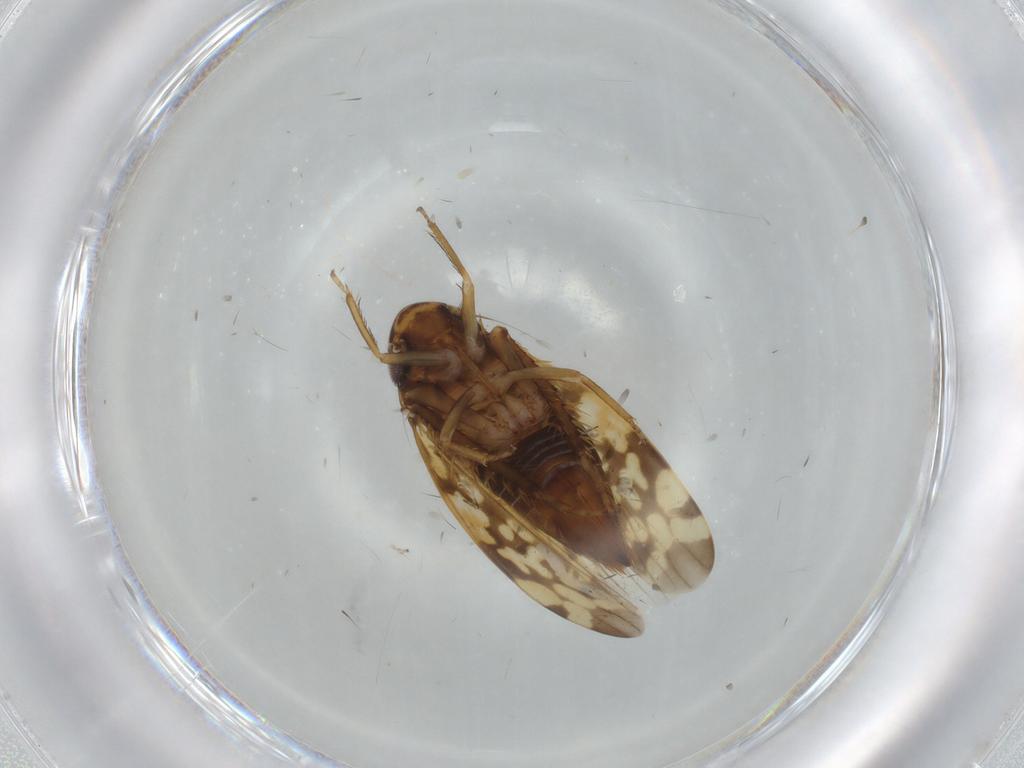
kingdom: Animalia
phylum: Arthropoda
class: Insecta
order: Hemiptera
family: Cicadellidae
